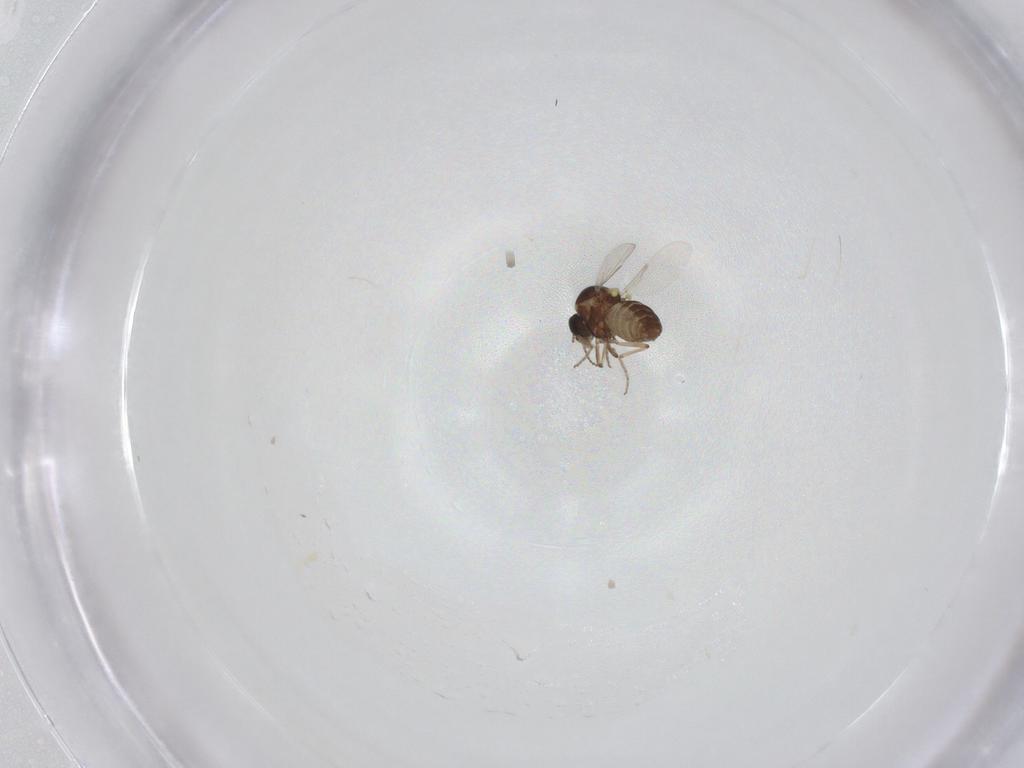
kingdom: Animalia
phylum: Arthropoda
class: Insecta
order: Diptera
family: Ceratopogonidae
